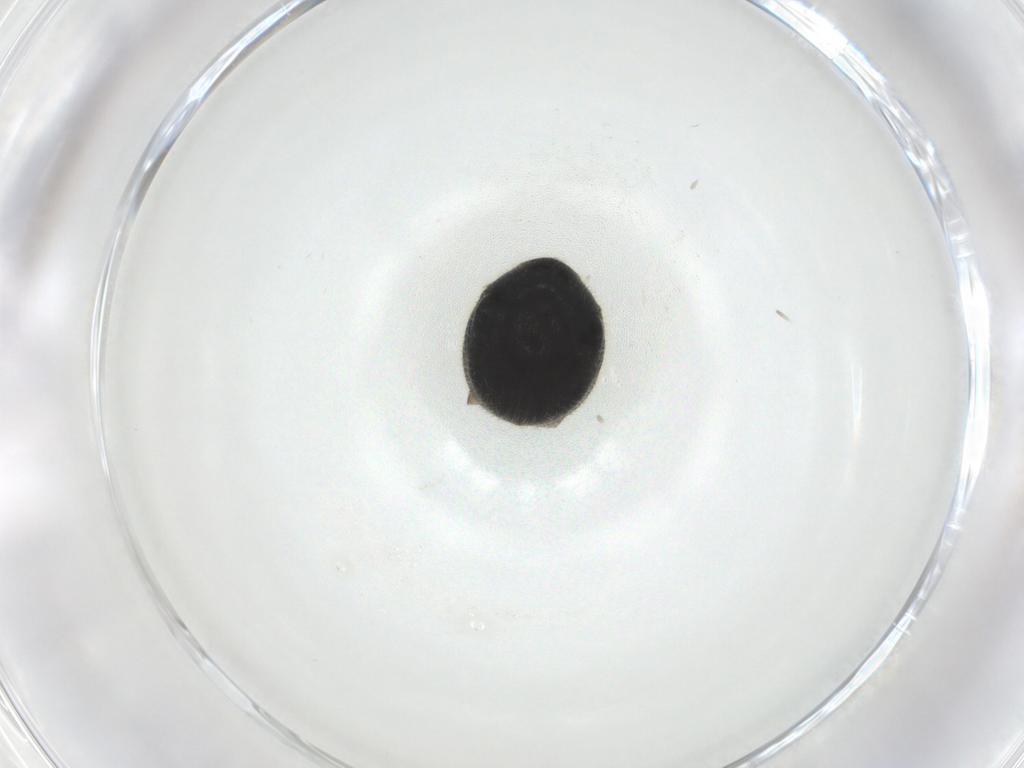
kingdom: Animalia
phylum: Arthropoda
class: Insecta
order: Coleoptera
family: Ptinidae
